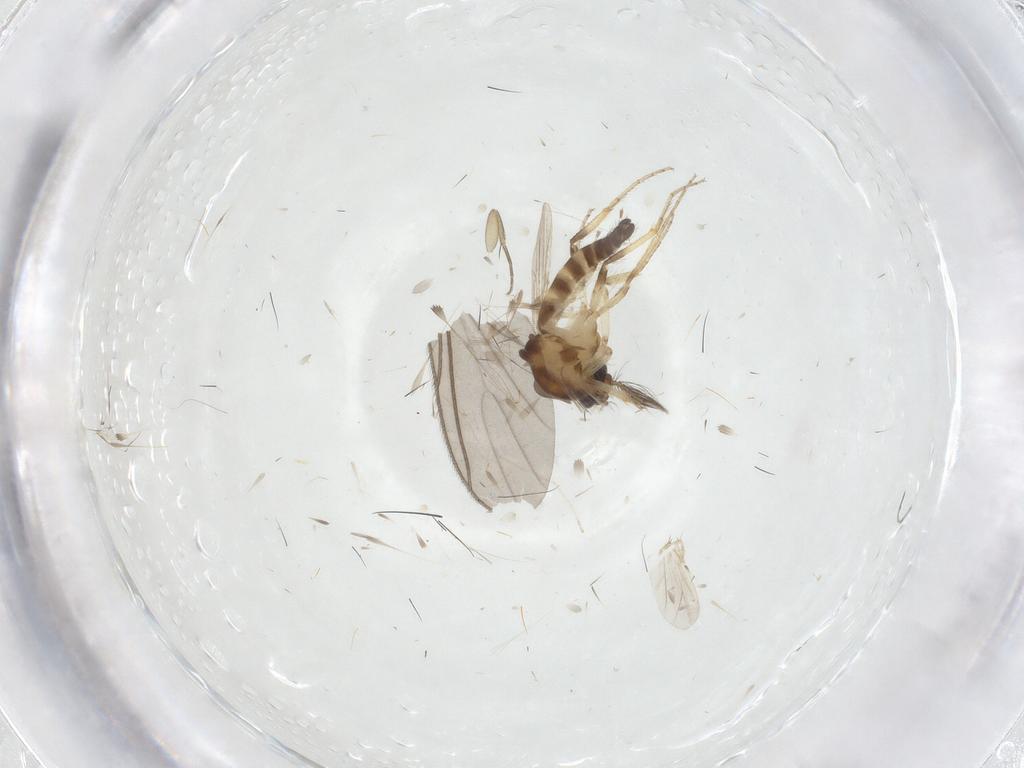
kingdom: Animalia
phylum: Arthropoda
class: Insecta
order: Diptera
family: Ceratopogonidae
